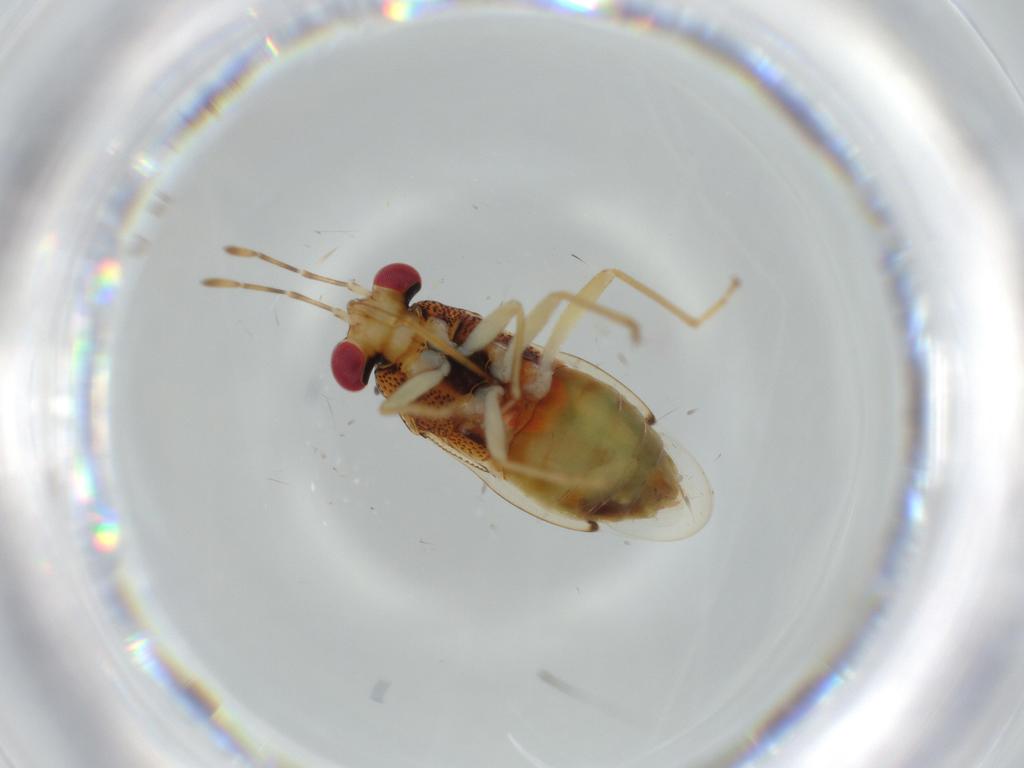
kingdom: Animalia
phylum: Arthropoda
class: Insecta
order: Hemiptera
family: Geocoridae
